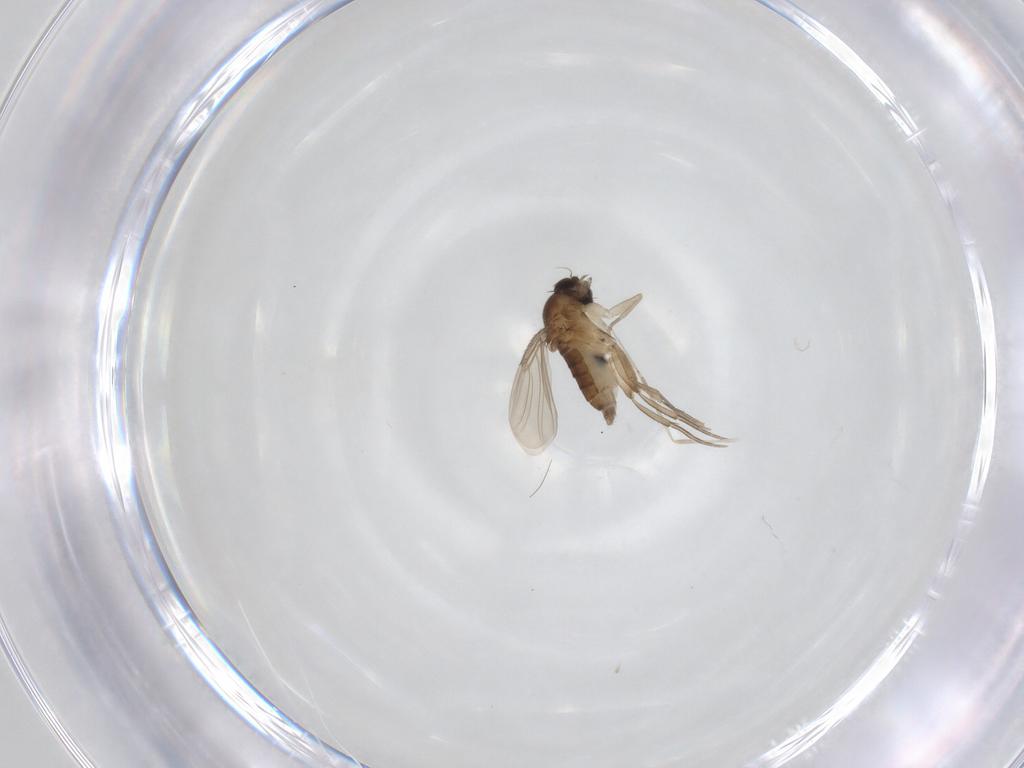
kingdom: Animalia
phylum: Arthropoda
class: Insecta
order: Diptera
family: Phoridae
